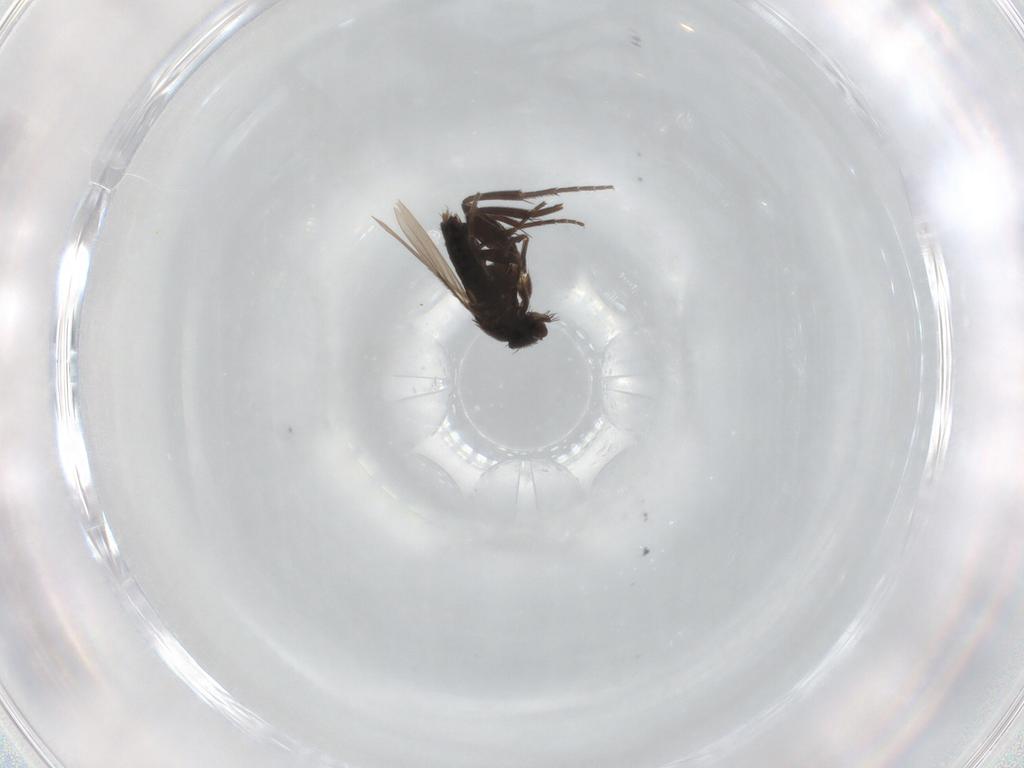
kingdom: Animalia
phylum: Arthropoda
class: Insecta
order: Diptera
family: Phoridae
